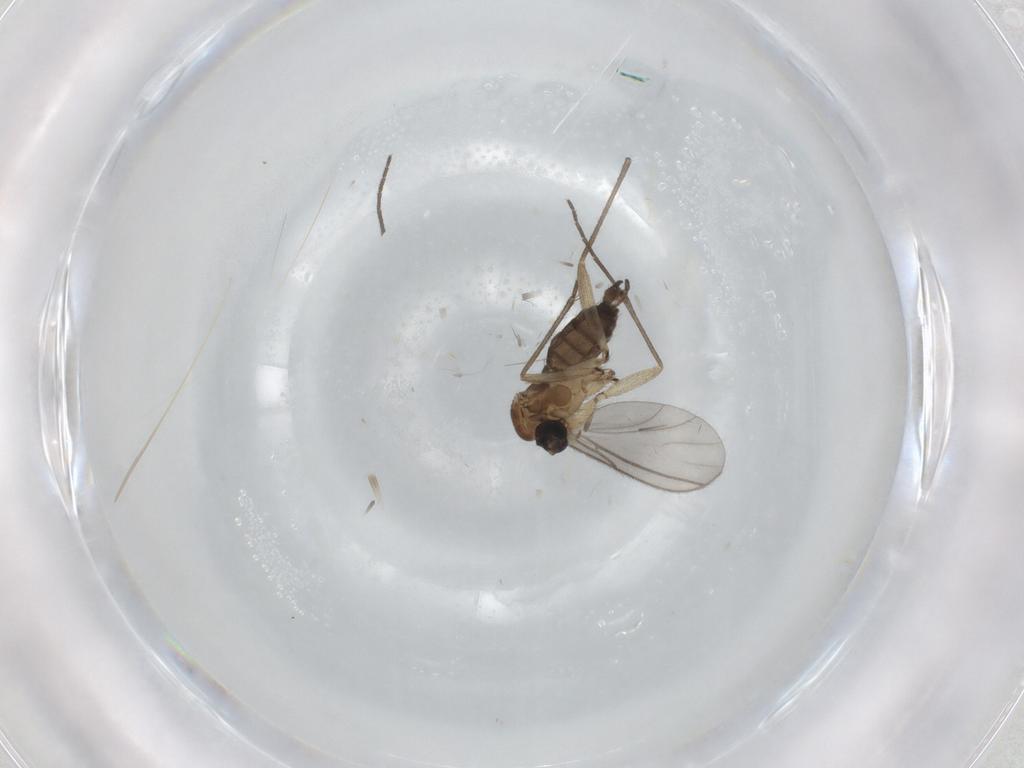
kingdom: Animalia
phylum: Arthropoda
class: Insecta
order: Diptera
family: Sciaridae
